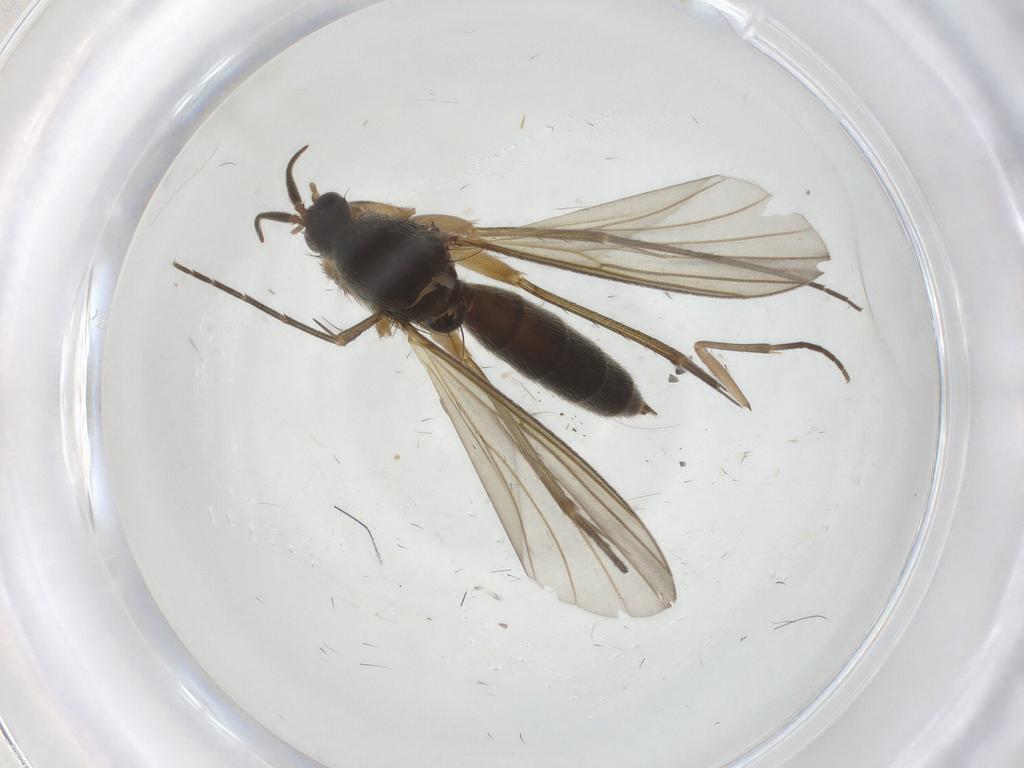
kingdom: Animalia
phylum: Arthropoda
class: Insecta
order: Diptera
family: Mycetophilidae
